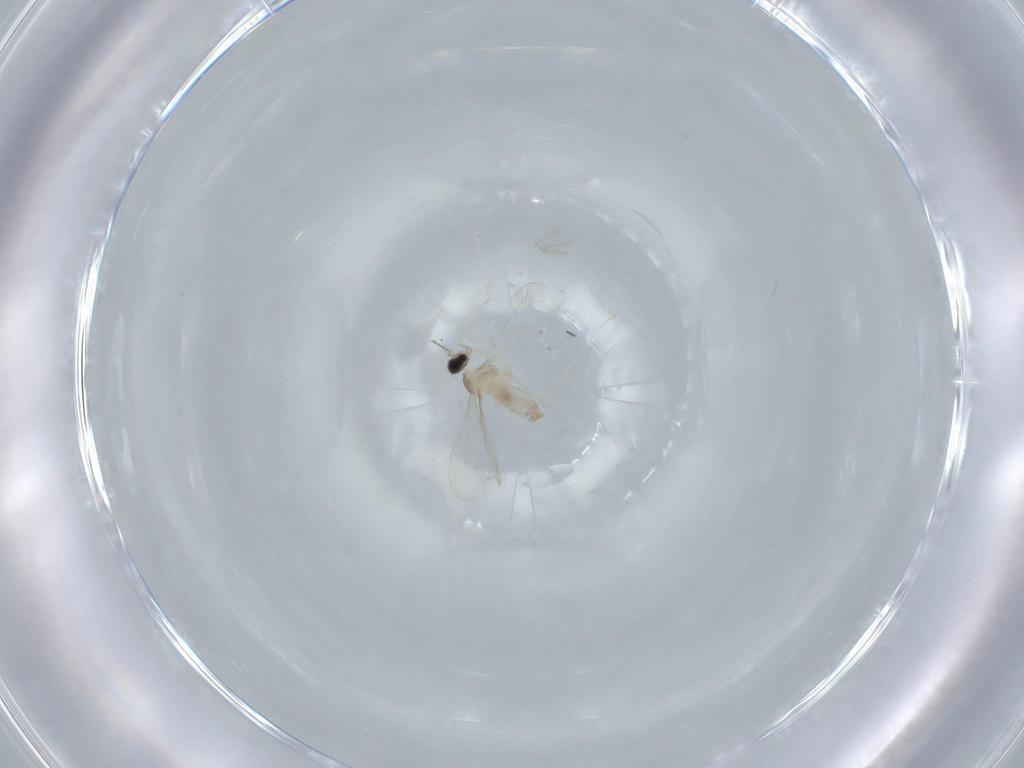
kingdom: Animalia
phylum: Arthropoda
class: Insecta
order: Diptera
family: Cecidomyiidae
